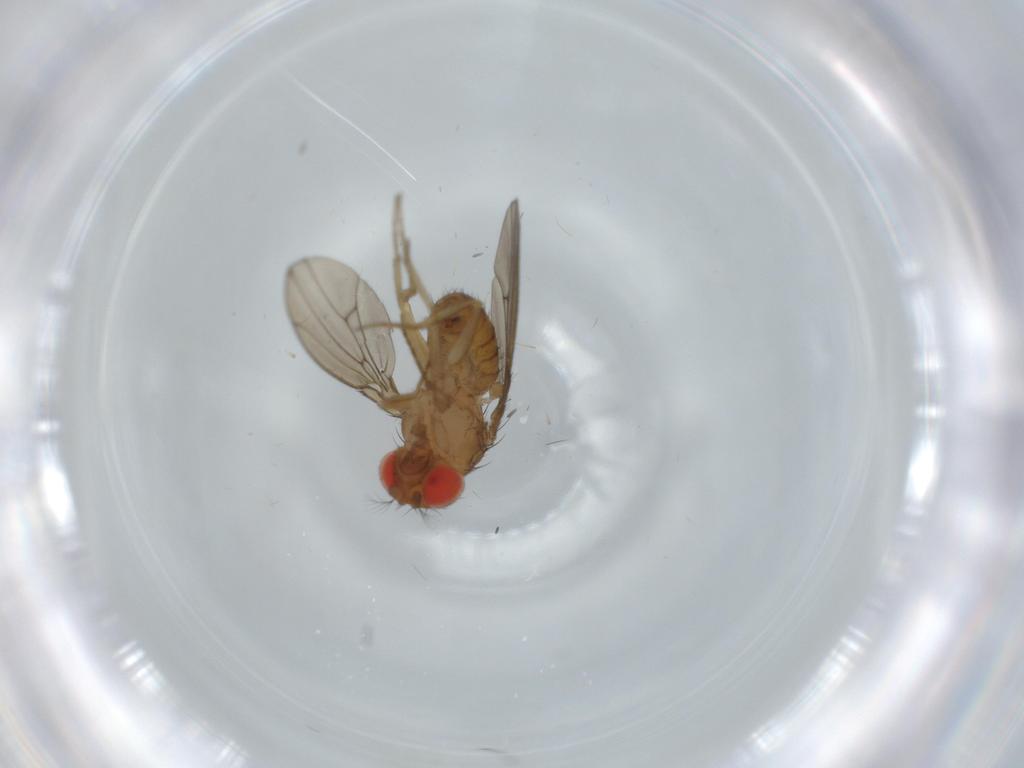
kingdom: Animalia
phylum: Arthropoda
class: Insecta
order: Diptera
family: Drosophilidae
